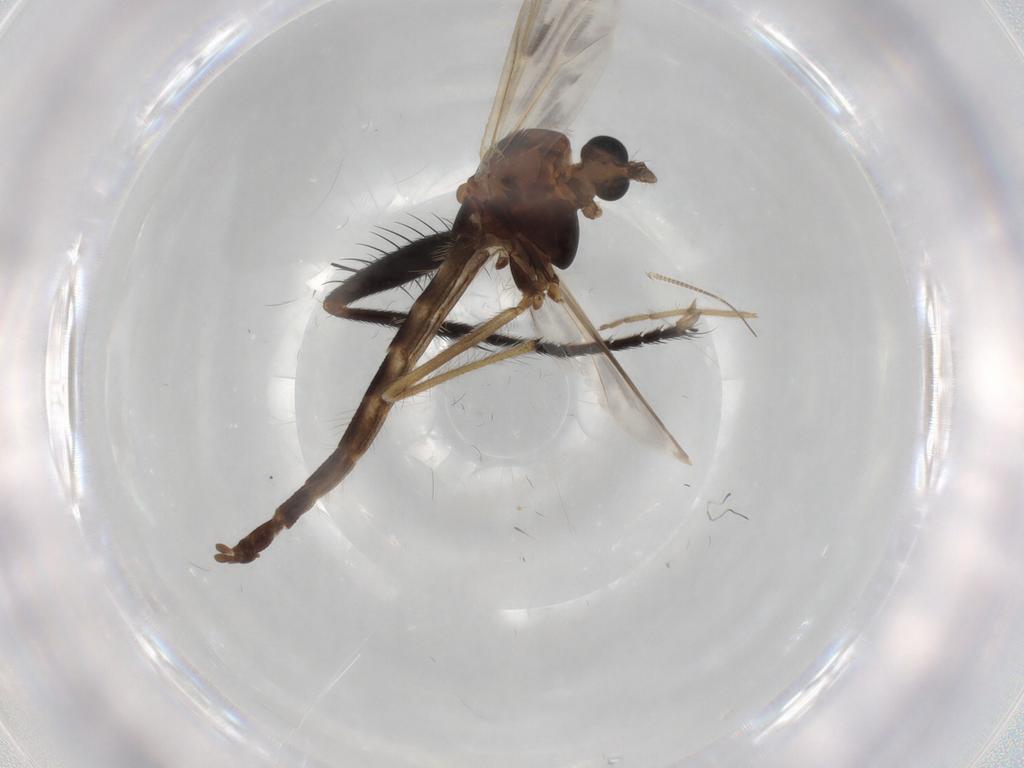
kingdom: Animalia
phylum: Arthropoda
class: Insecta
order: Diptera
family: Chironomidae
